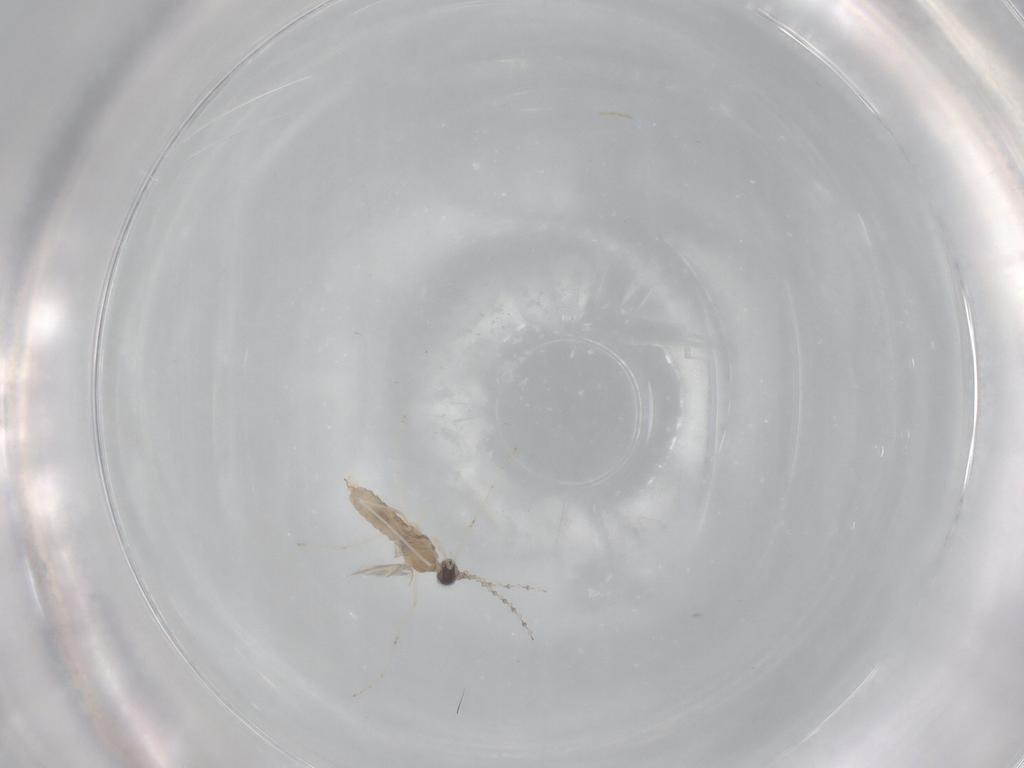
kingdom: Animalia
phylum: Arthropoda
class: Insecta
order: Diptera
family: Cecidomyiidae
